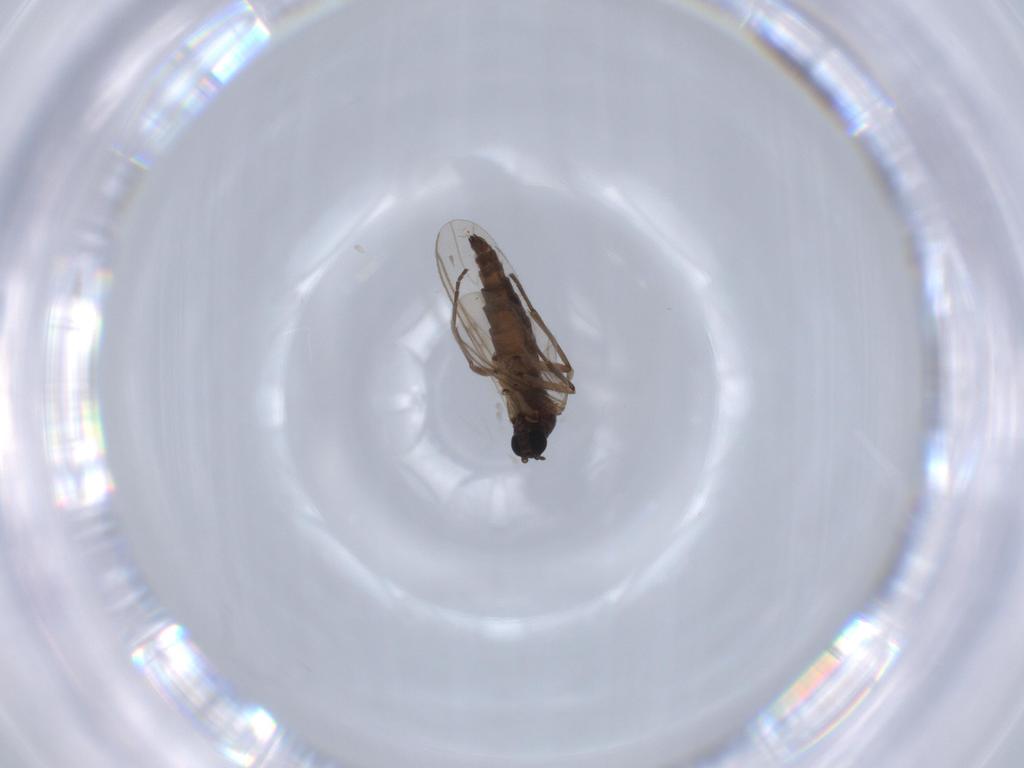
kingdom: Animalia
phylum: Arthropoda
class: Insecta
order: Diptera
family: Sciaridae
